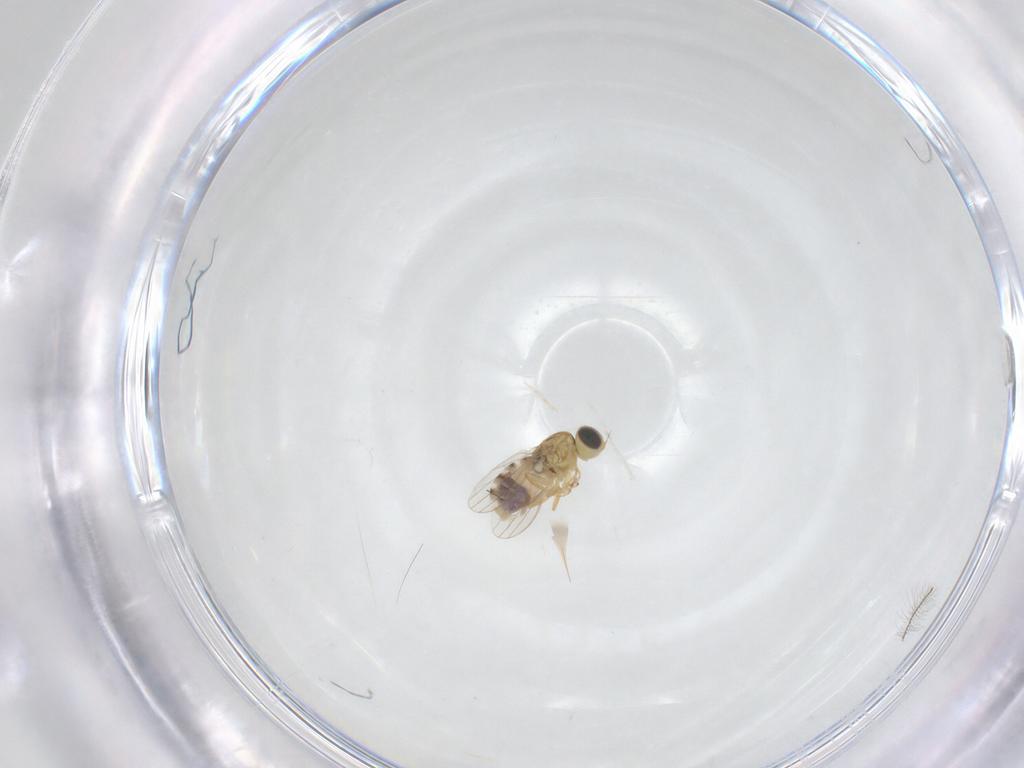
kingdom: Animalia
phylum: Arthropoda
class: Insecta
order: Diptera
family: Chyromyidae
